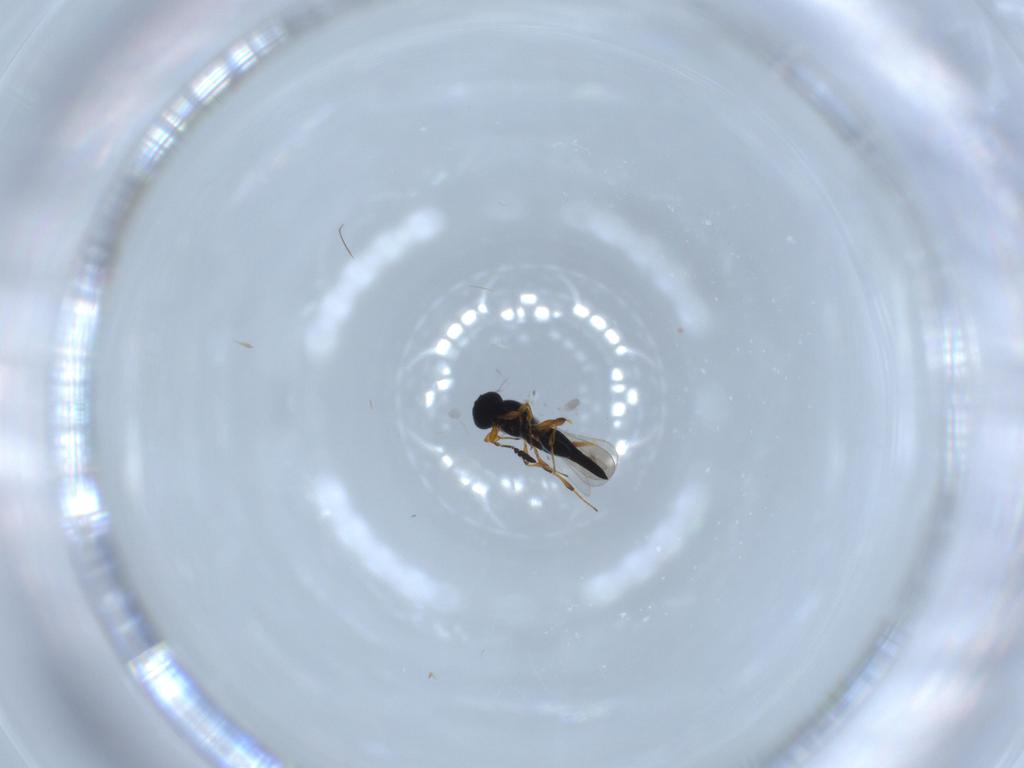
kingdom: Animalia
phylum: Arthropoda
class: Insecta
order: Hymenoptera
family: Platygastridae
